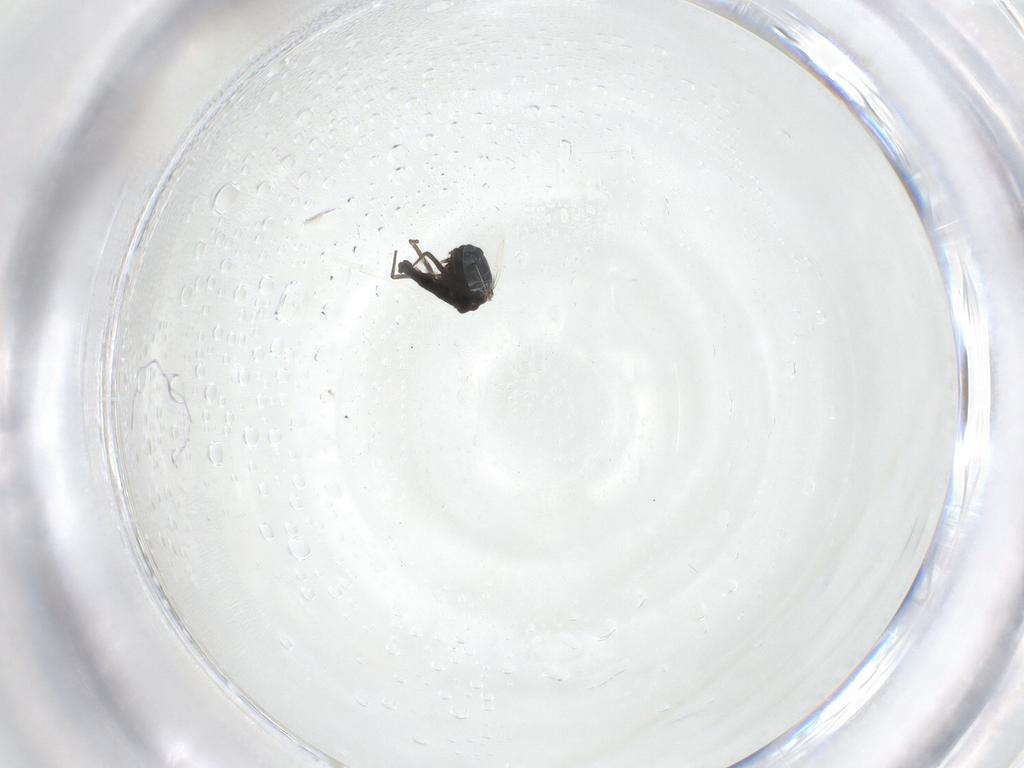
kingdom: Animalia
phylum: Arthropoda
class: Insecta
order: Diptera
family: Chironomidae
